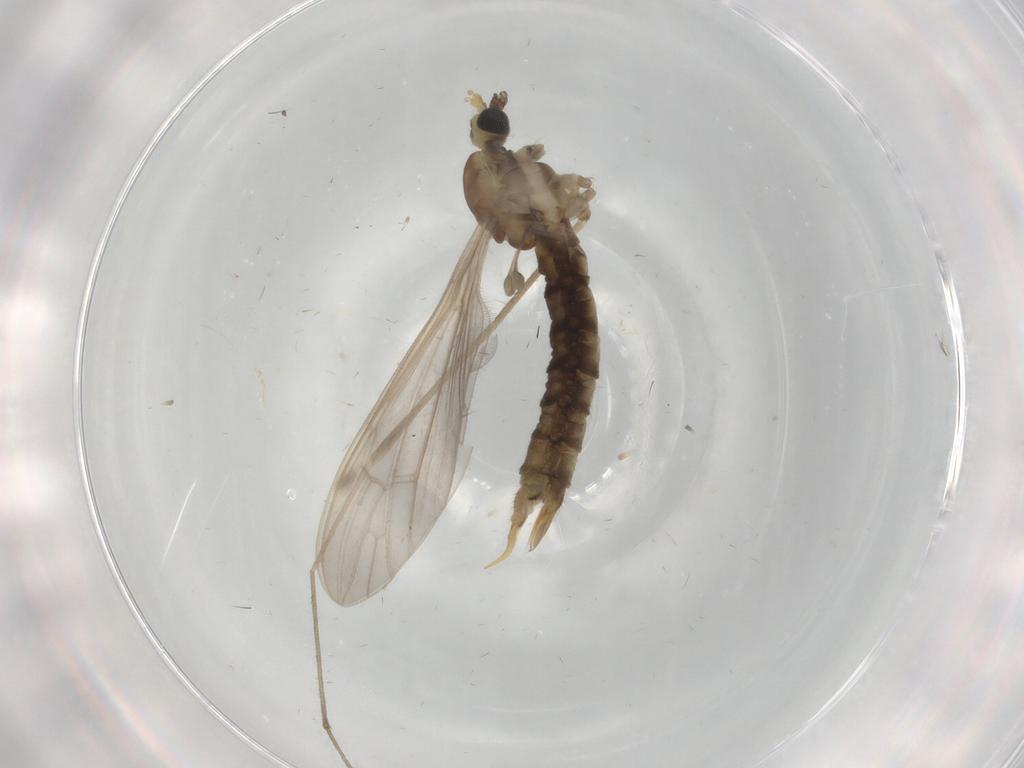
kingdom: Animalia
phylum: Arthropoda
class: Insecta
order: Diptera
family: Limoniidae
